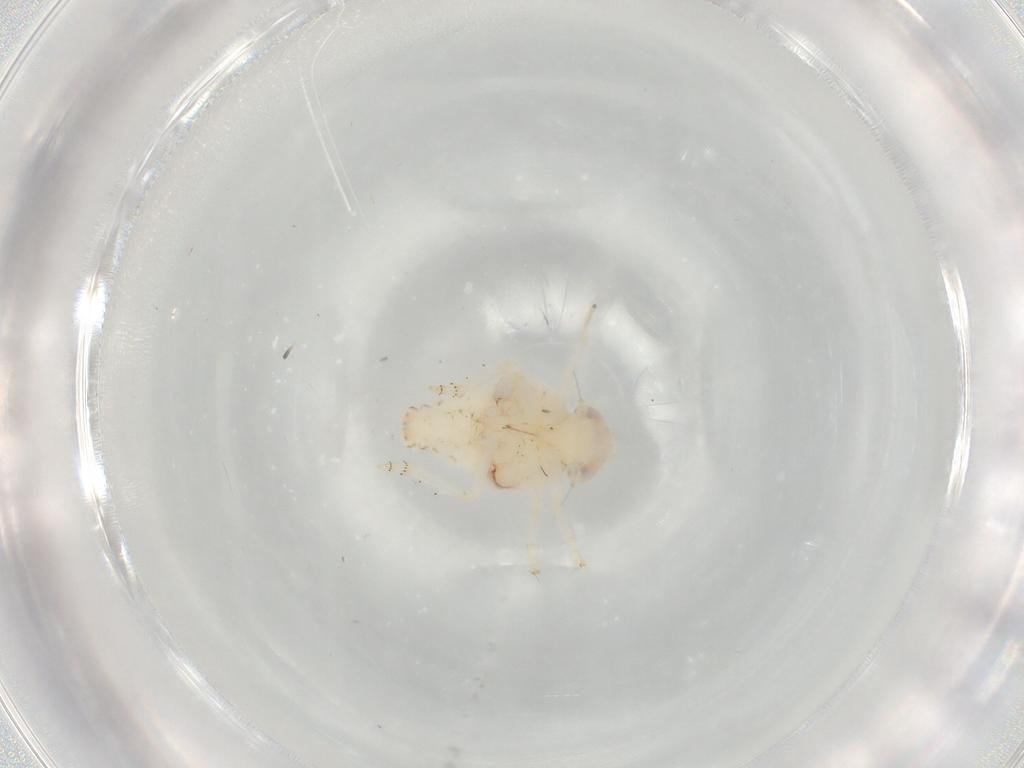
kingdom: Animalia
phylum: Arthropoda
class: Insecta
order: Hemiptera
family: Nogodinidae
